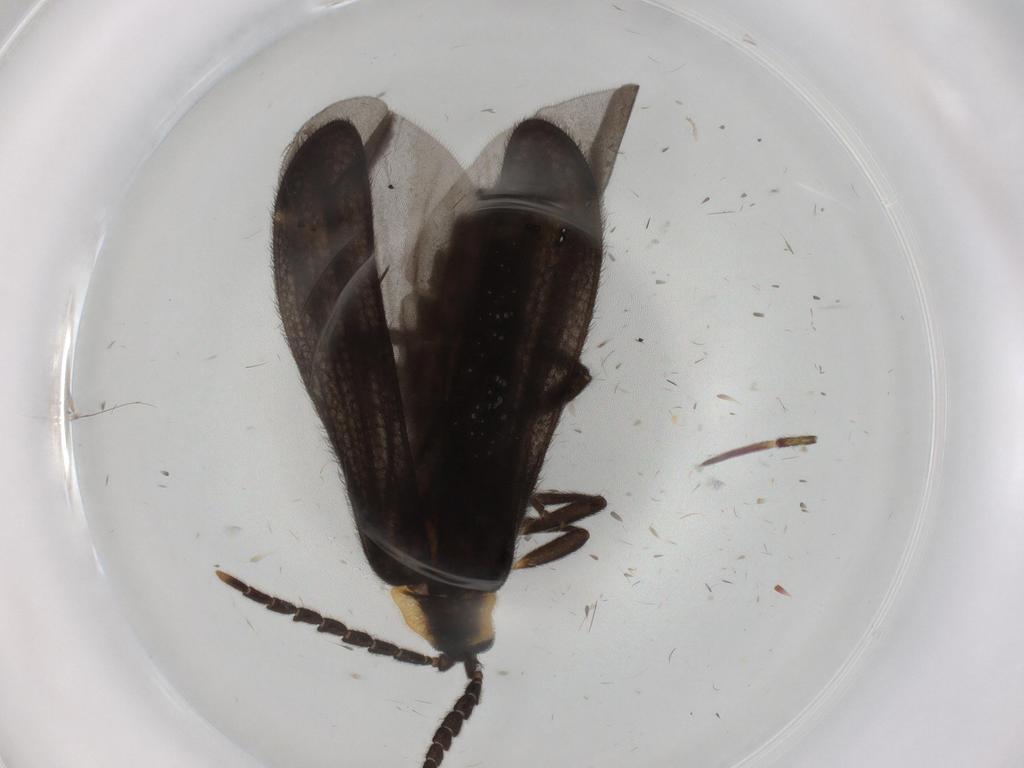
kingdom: Animalia
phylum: Arthropoda
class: Insecta
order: Coleoptera
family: Lycidae
